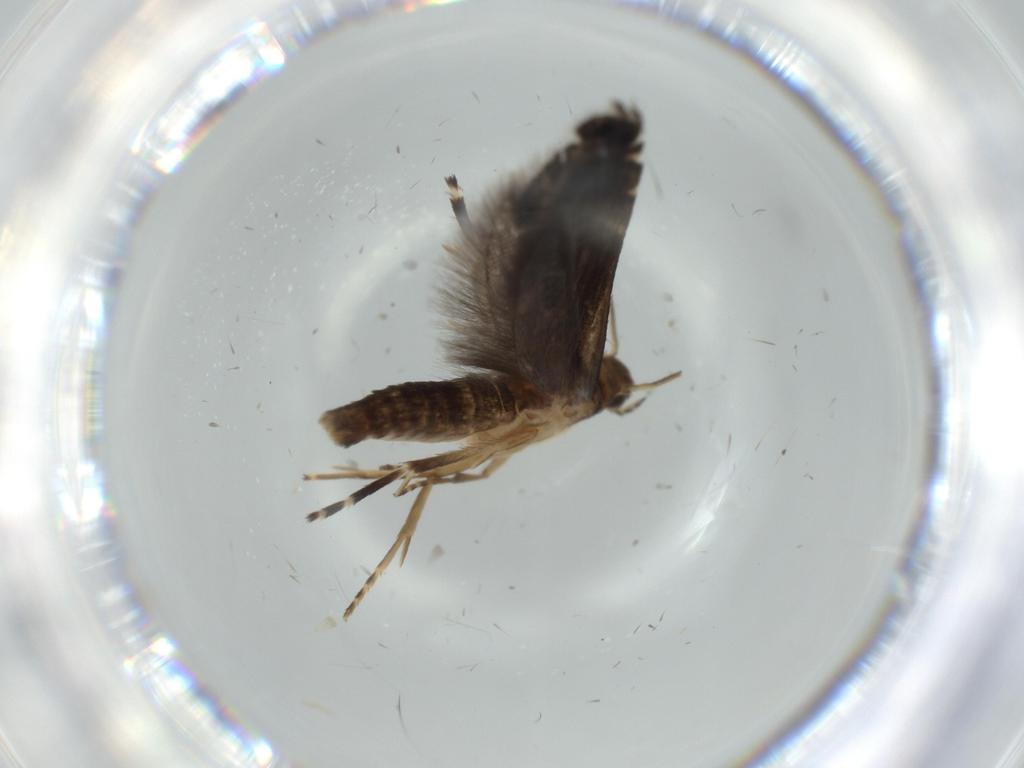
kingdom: Animalia
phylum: Arthropoda
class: Insecta
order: Lepidoptera
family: Glyphipterigidae
